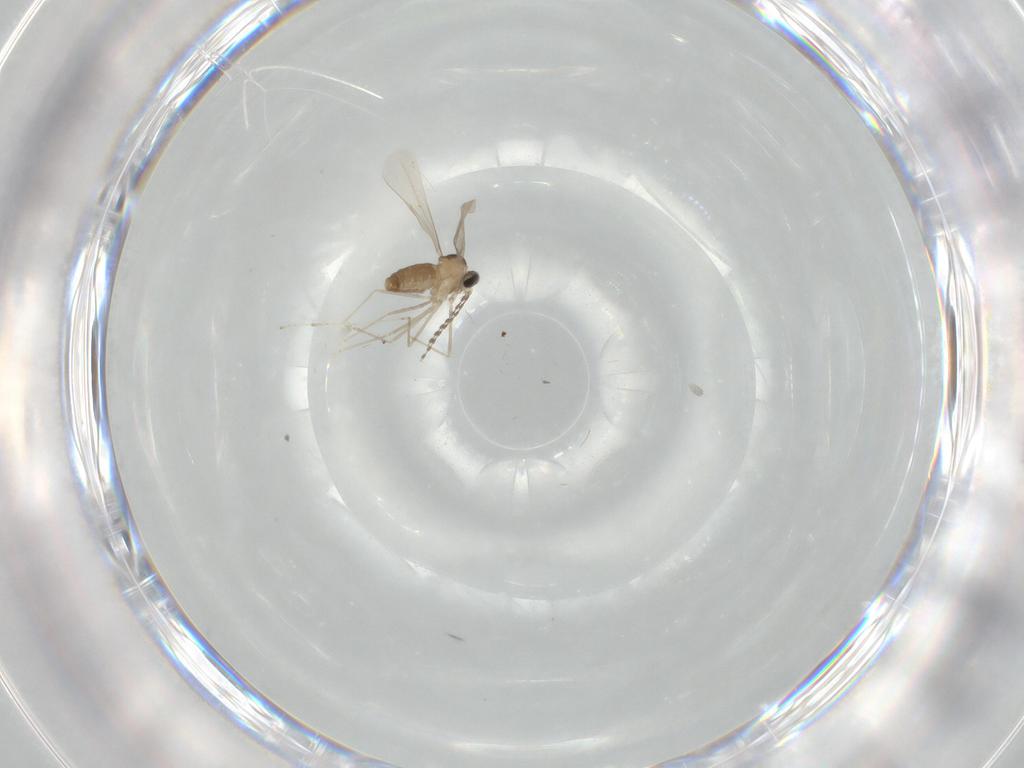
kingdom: Animalia
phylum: Arthropoda
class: Insecta
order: Diptera
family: Cecidomyiidae
